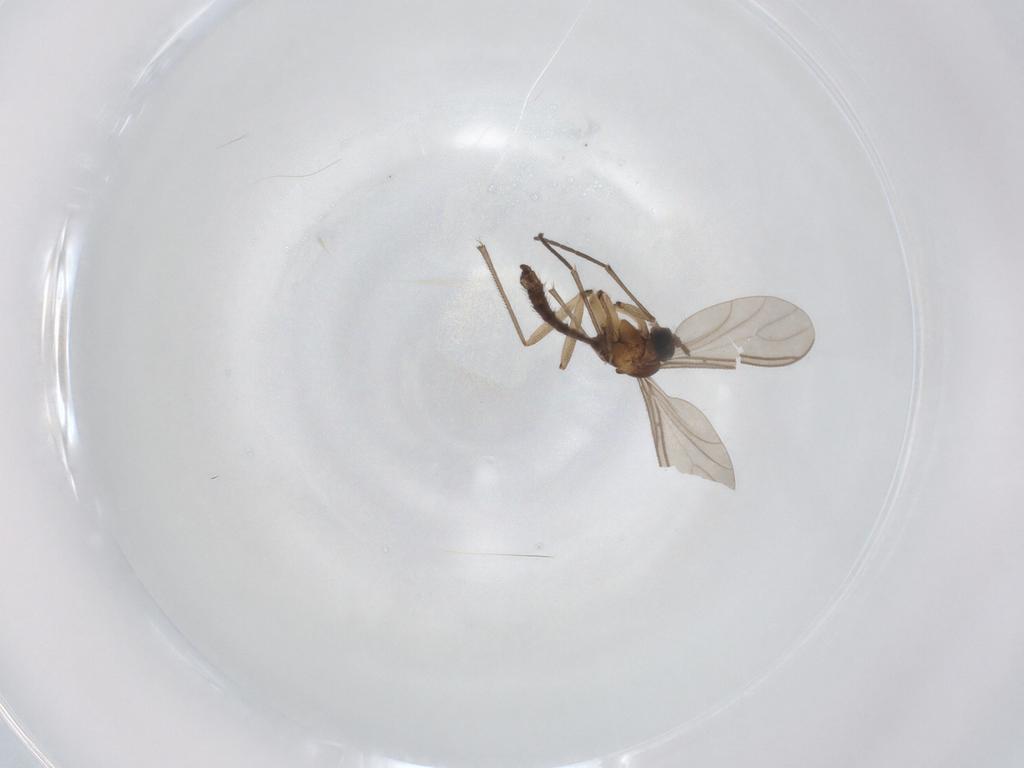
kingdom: Animalia
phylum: Arthropoda
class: Insecta
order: Diptera
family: Sciaridae
